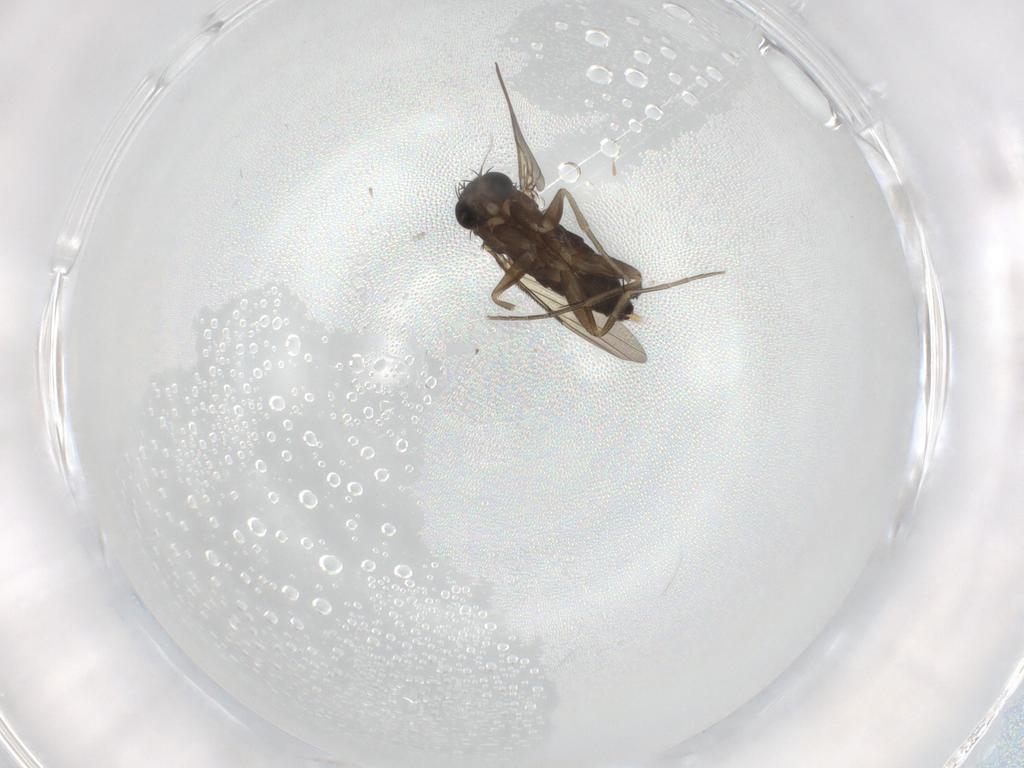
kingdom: Animalia
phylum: Arthropoda
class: Insecta
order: Diptera
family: Phoridae
